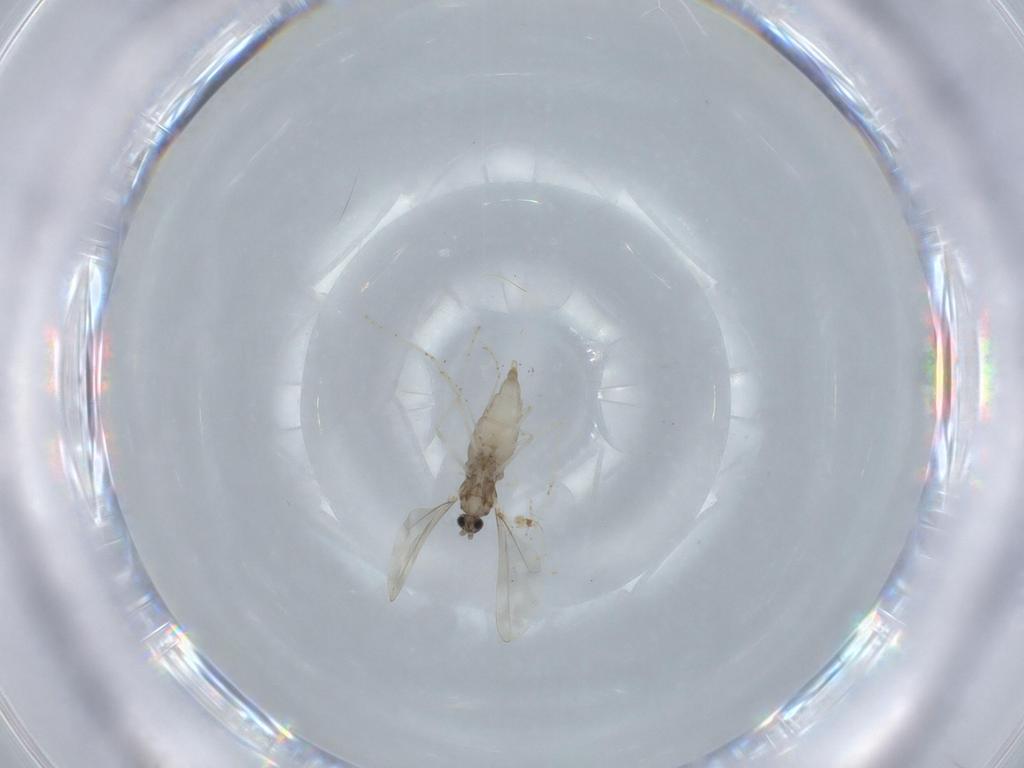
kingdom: Animalia
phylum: Arthropoda
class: Insecta
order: Diptera
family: Cecidomyiidae
